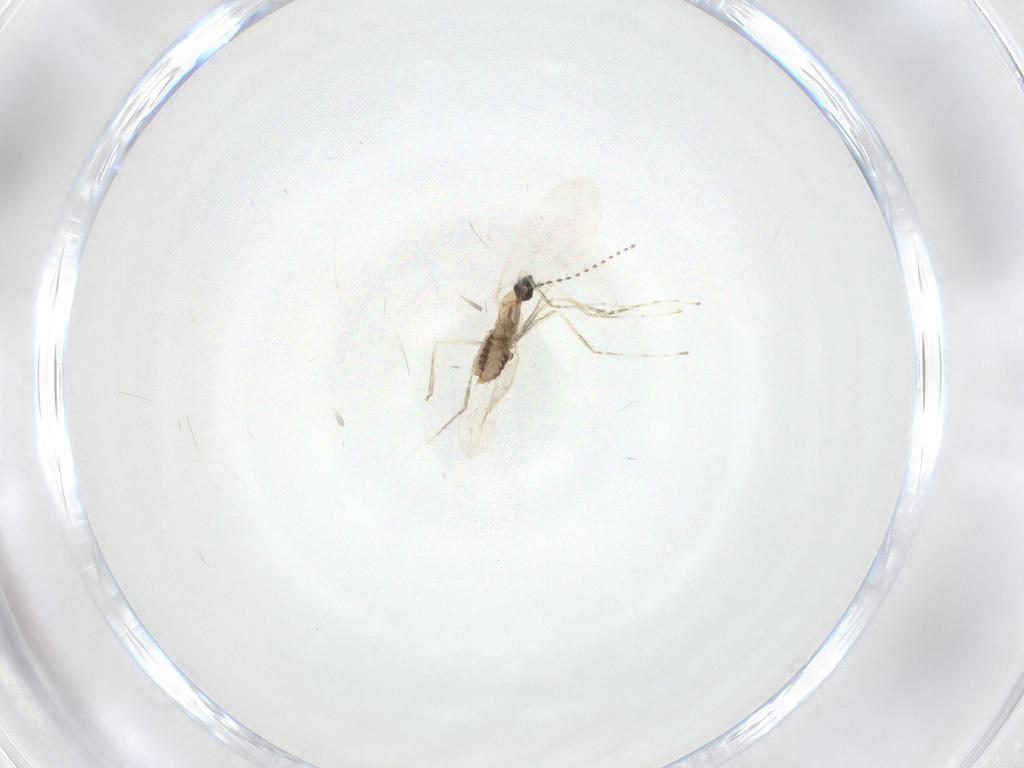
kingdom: Animalia
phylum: Arthropoda
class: Insecta
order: Diptera
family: Cecidomyiidae
